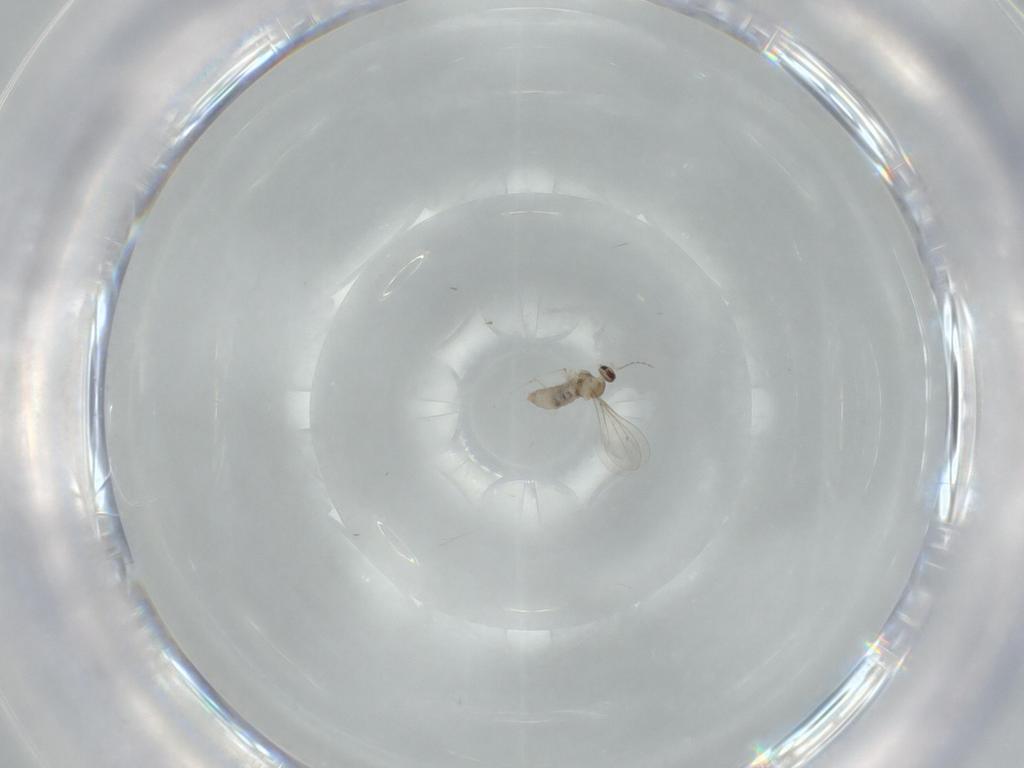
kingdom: Animalia
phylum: Arthropoda
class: Insecta
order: Diptera
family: Cecidomyiidae
